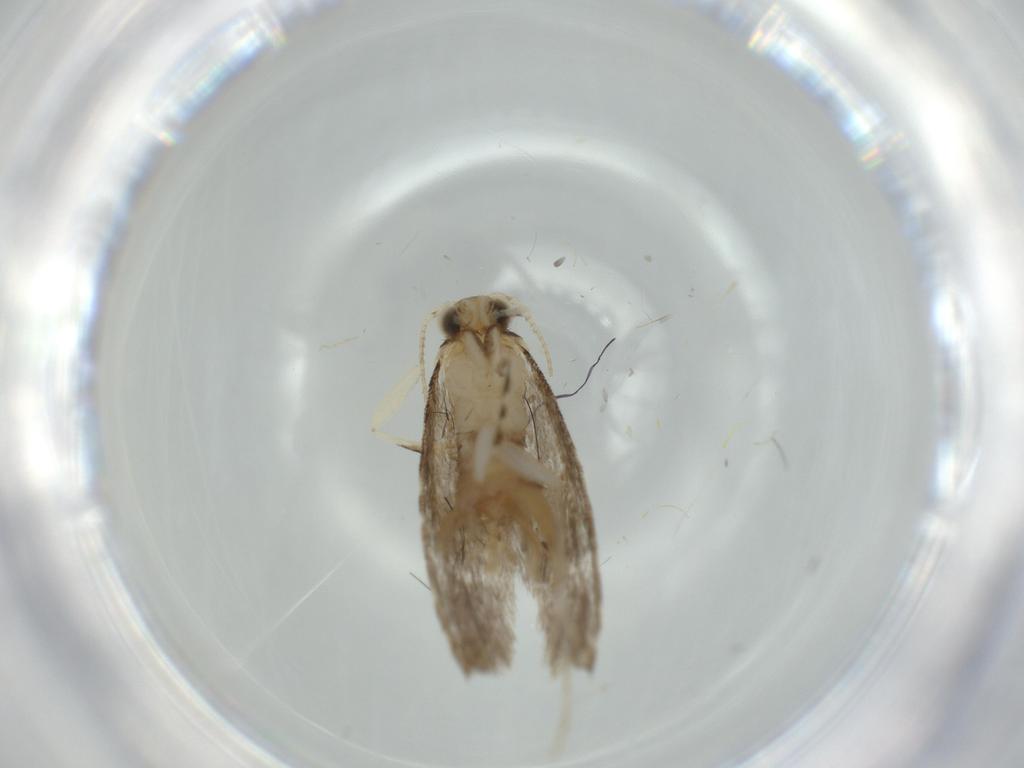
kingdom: Animalia
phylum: Arthropoda
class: Insecta
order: Lepidoptera
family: Tineidae
